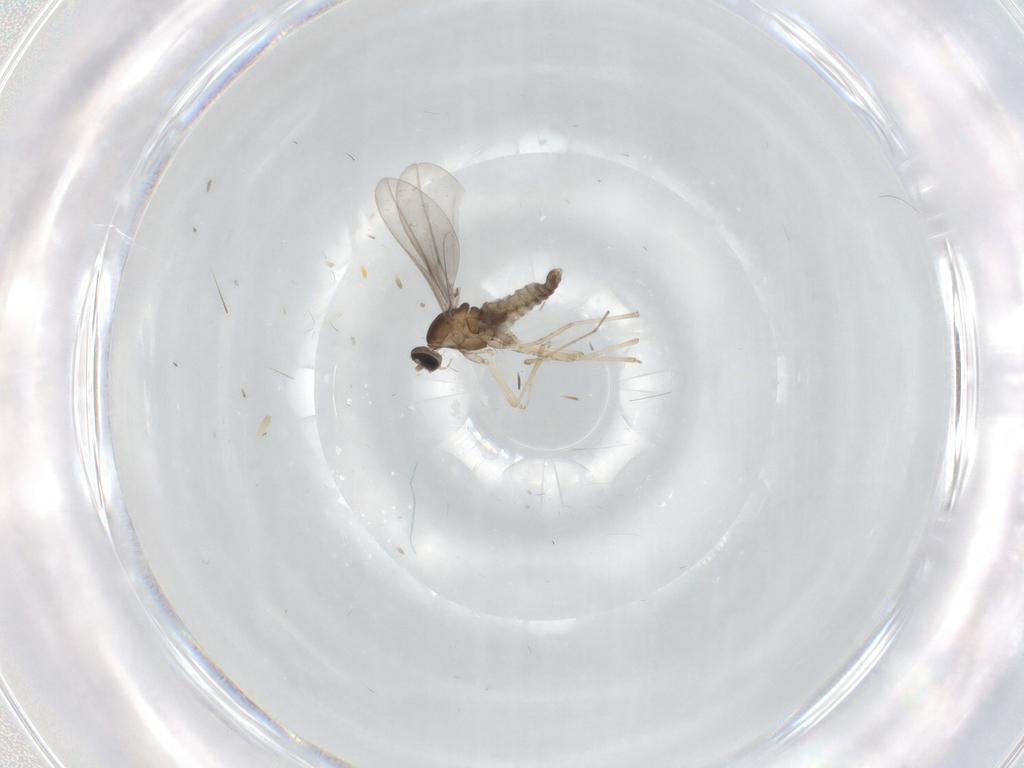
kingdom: Animalia
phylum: Arthropoda
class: Insecta
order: Diptera
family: Cecidomyiidae
